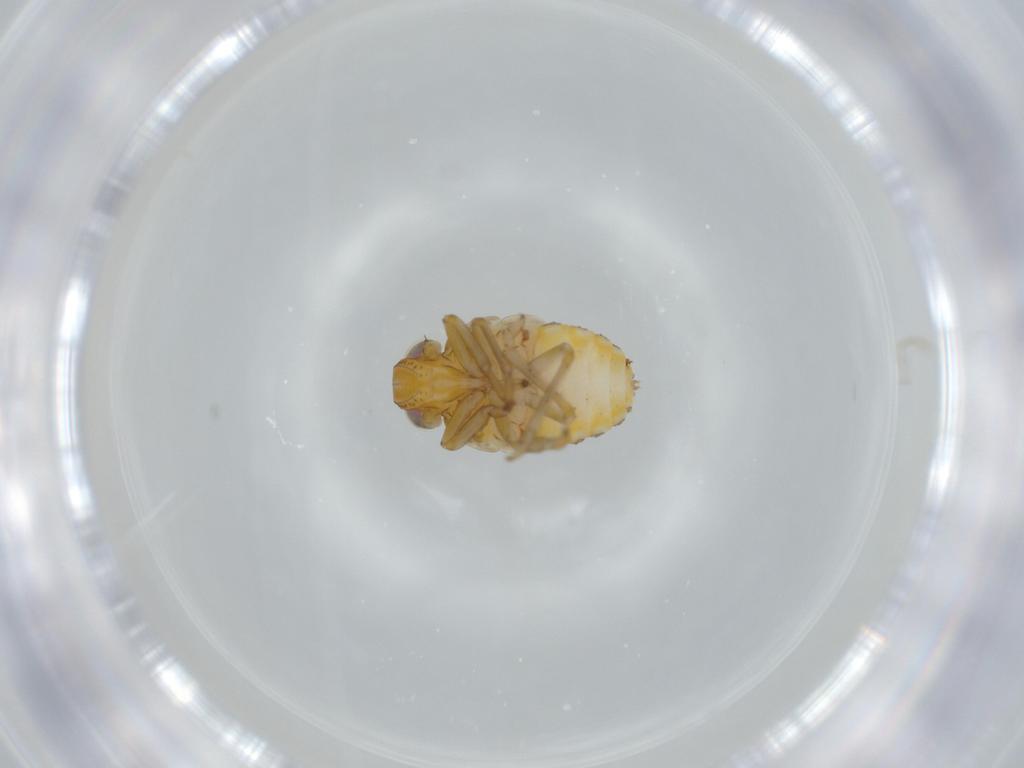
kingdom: Animalia
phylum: Arthropoda
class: Insecta
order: Hemiptera
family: Issidae
